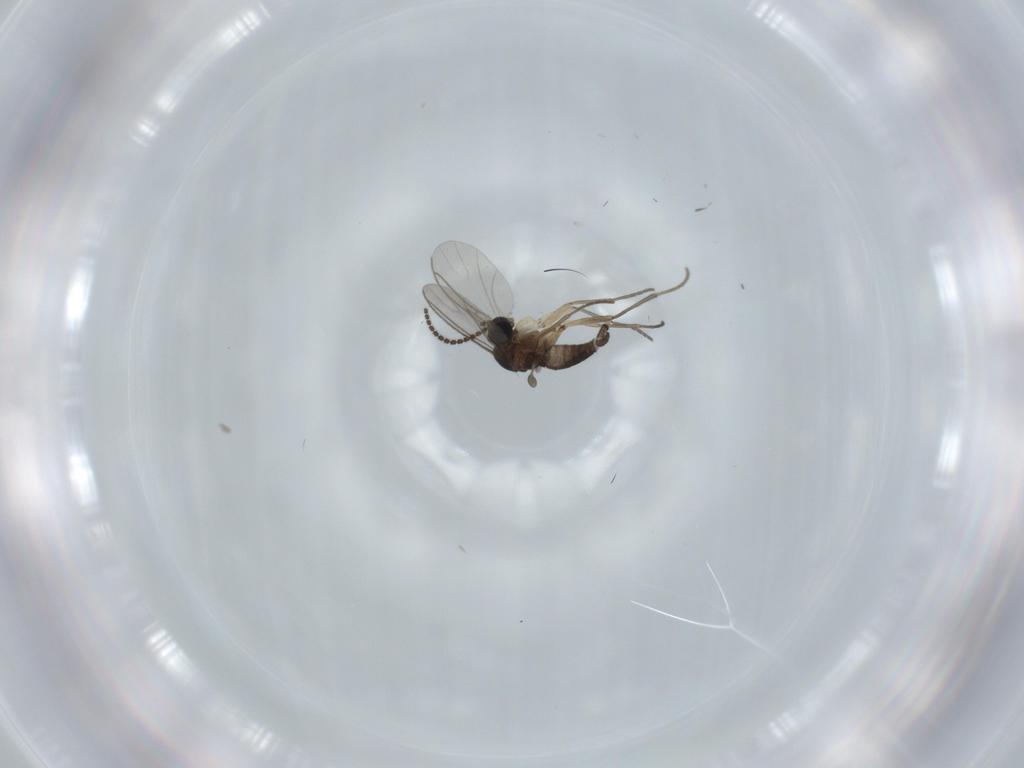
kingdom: Animalia
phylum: Arthropoda
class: Insecta
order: Diptera
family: Sciaridae
